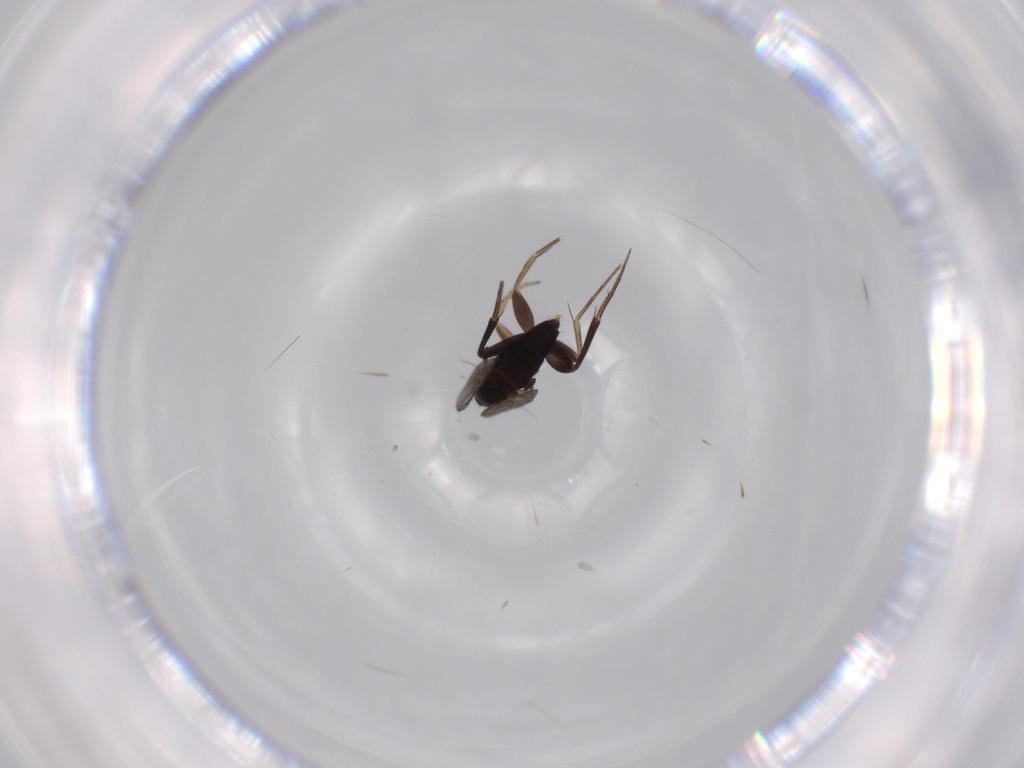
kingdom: Animalia
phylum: Arthropoda
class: Insecta
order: Diptera
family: Phoridae
